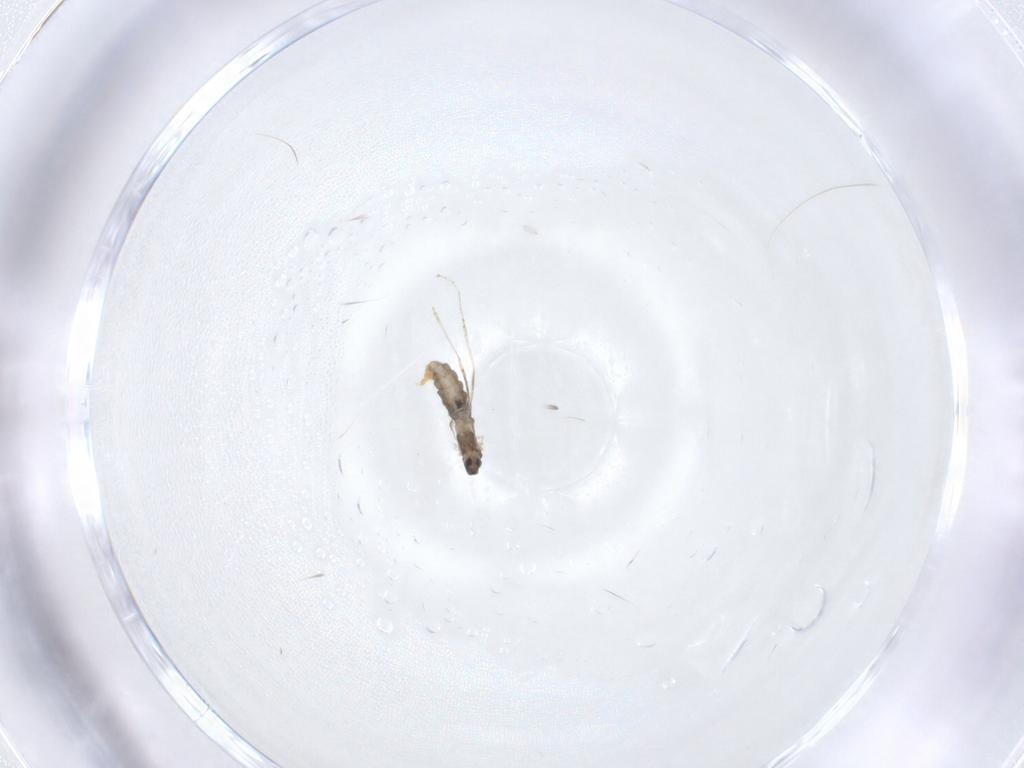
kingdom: Animalia
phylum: Arthropoda
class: Insecta
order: Diptera
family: Cecidomyiidae
